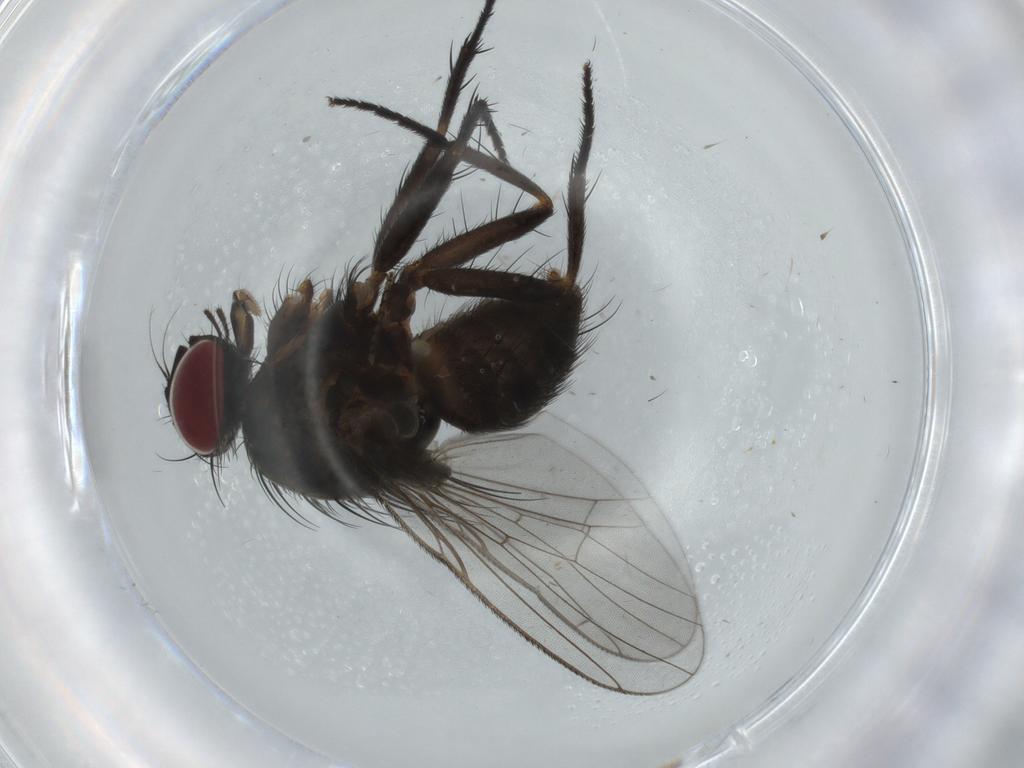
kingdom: Animalia
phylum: Arthropoda
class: Insecta
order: Diptera
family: Muscidae
